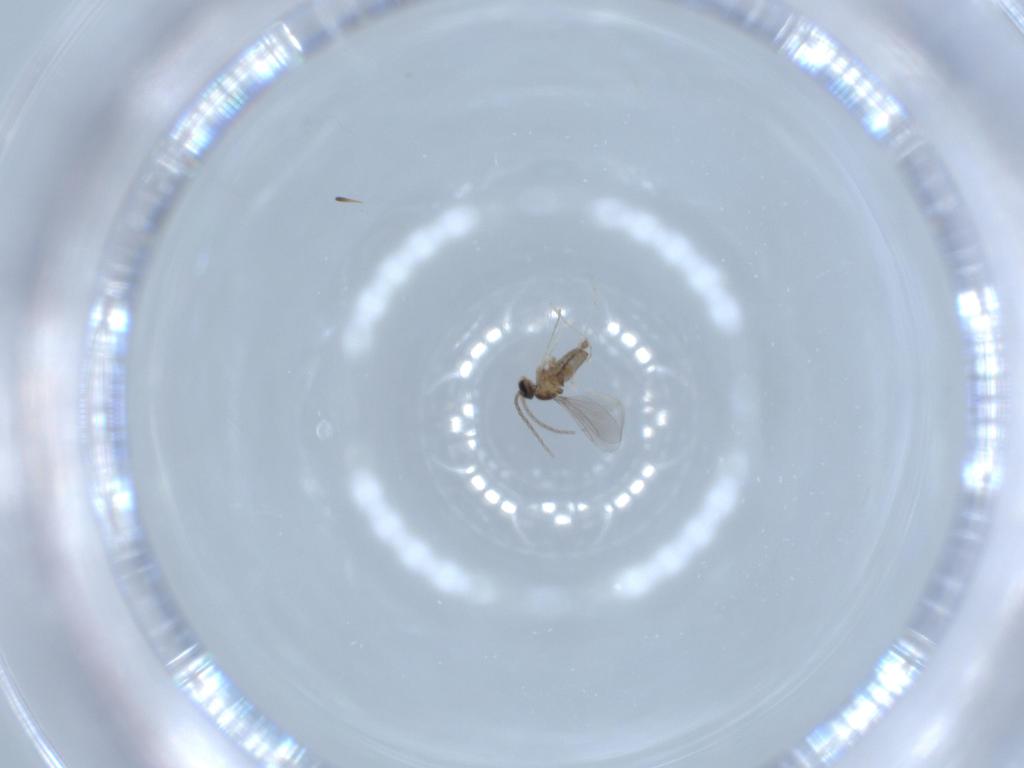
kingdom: Animalia
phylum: Arthropoda
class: Insecta
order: Diptera
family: Cecidomyiidae
